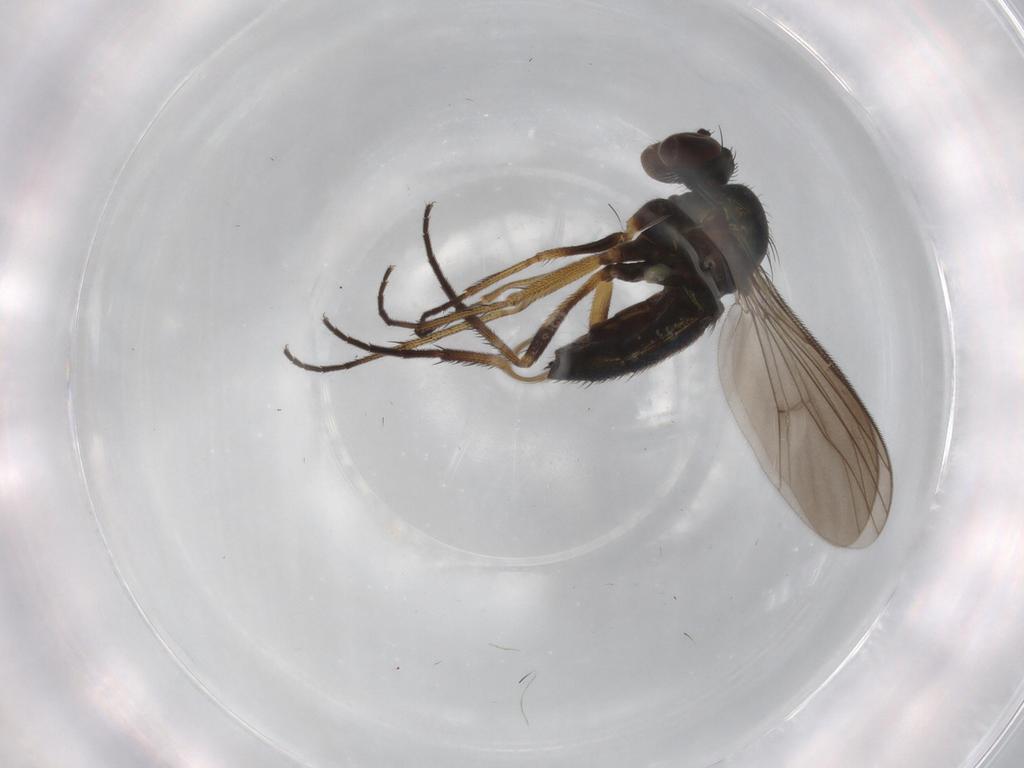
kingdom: Animalia
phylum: Arthropoda
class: Insecta
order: Diptera
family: Dolichopodidae
